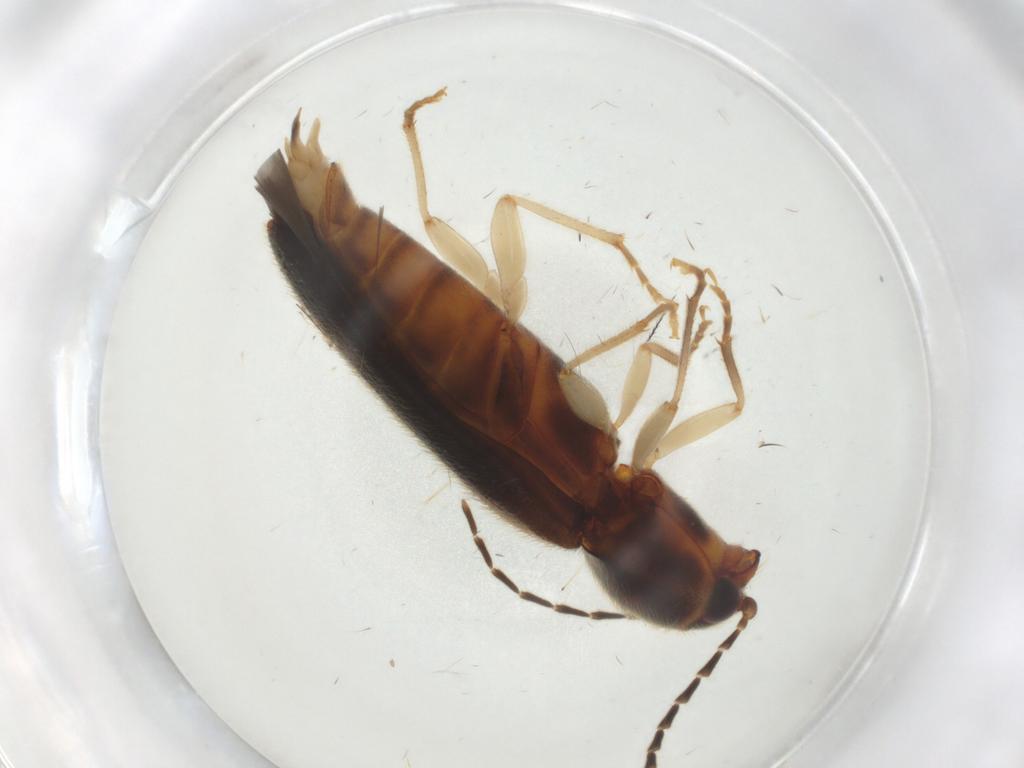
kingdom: Animalia
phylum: Arthropoda
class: Insecta
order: Coleoptera
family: Elateridae
